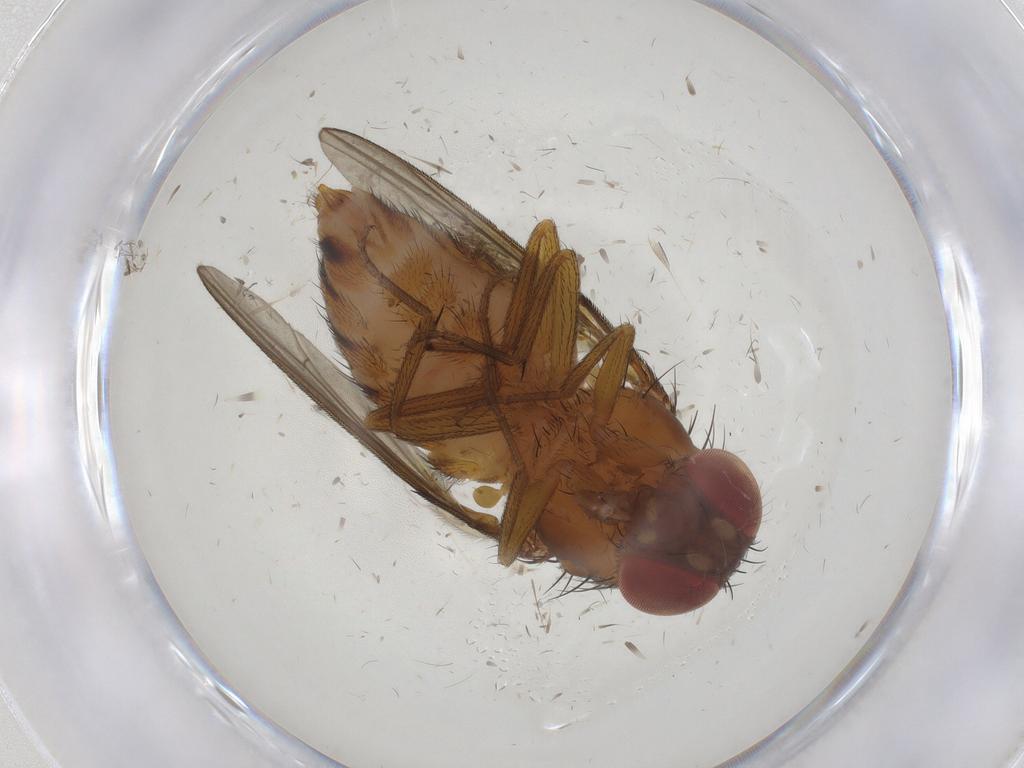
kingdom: Animalia
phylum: Arthropoda
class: Insecta
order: Diptera
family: Drosophilidae
